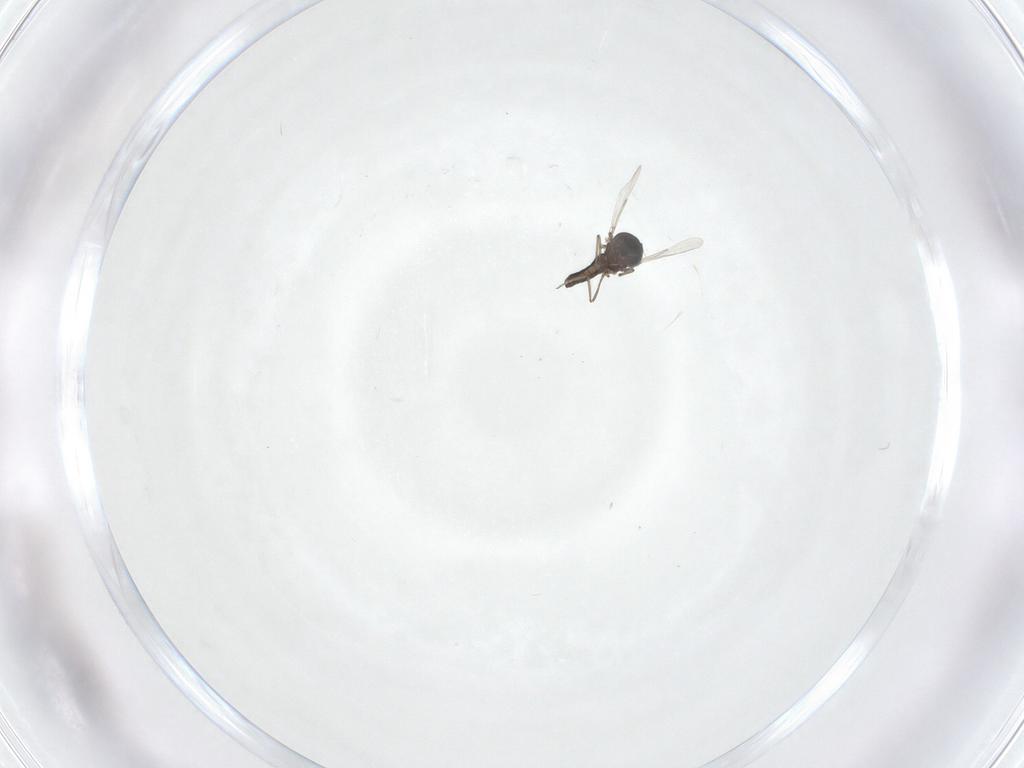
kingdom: Animalia
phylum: Arthropoda
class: Insecta
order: Diptera
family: Ceratopogonidae
